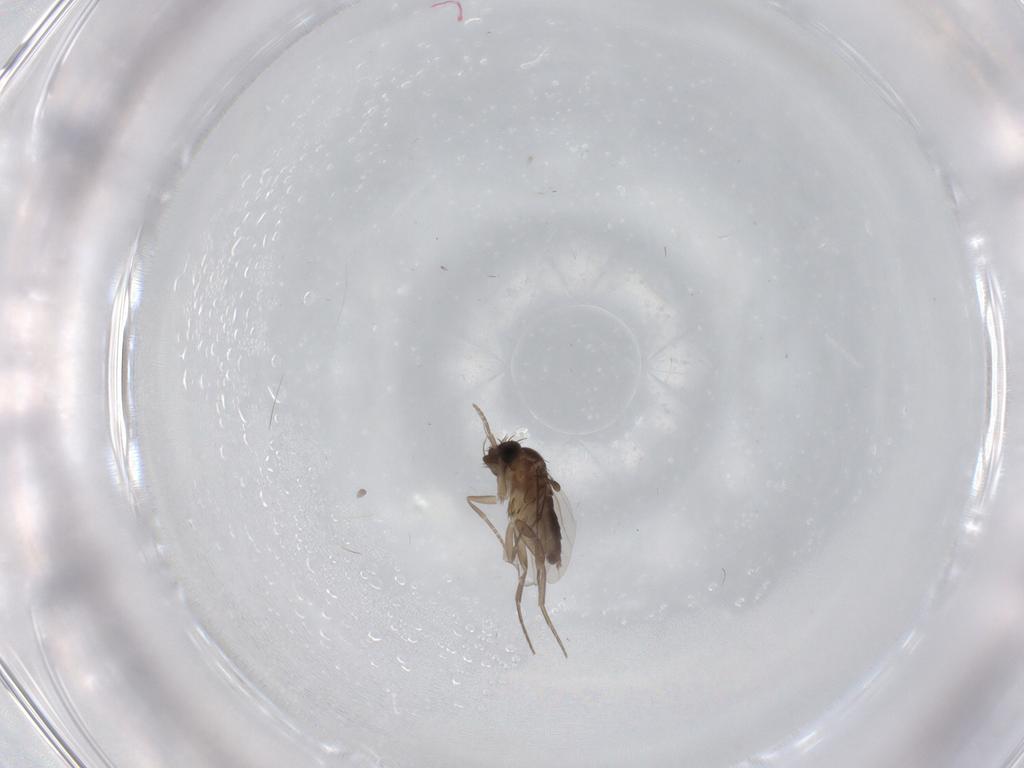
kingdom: Animalia
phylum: Arthropoda
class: Insecta
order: Diptera
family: Phoridae
